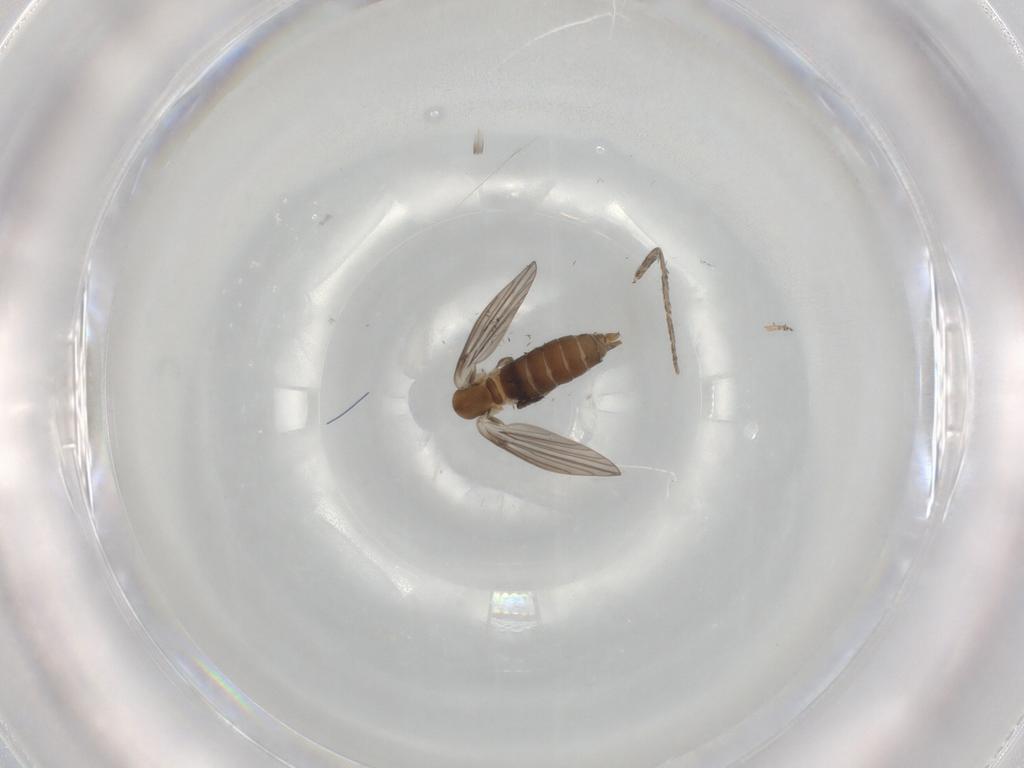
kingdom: Animalia
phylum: Arthropoda
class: Insecta
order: Diptera
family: Psychodidae
